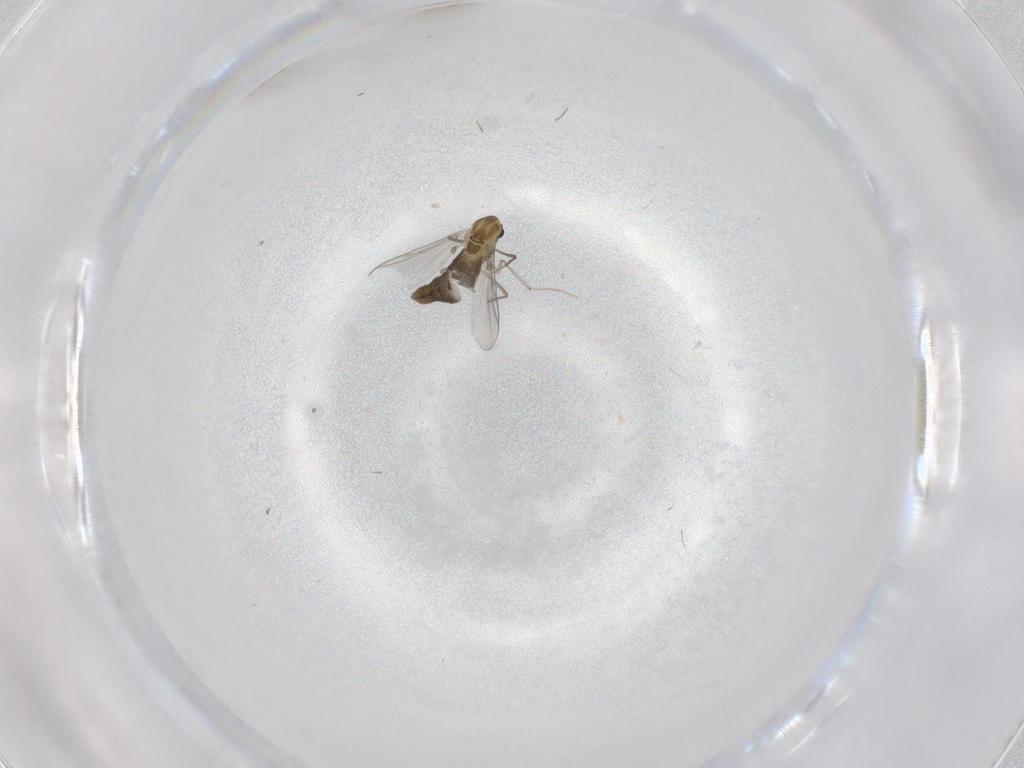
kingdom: Animalia
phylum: Arthropoda
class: Insecta
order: Diptera
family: Chironomidae
